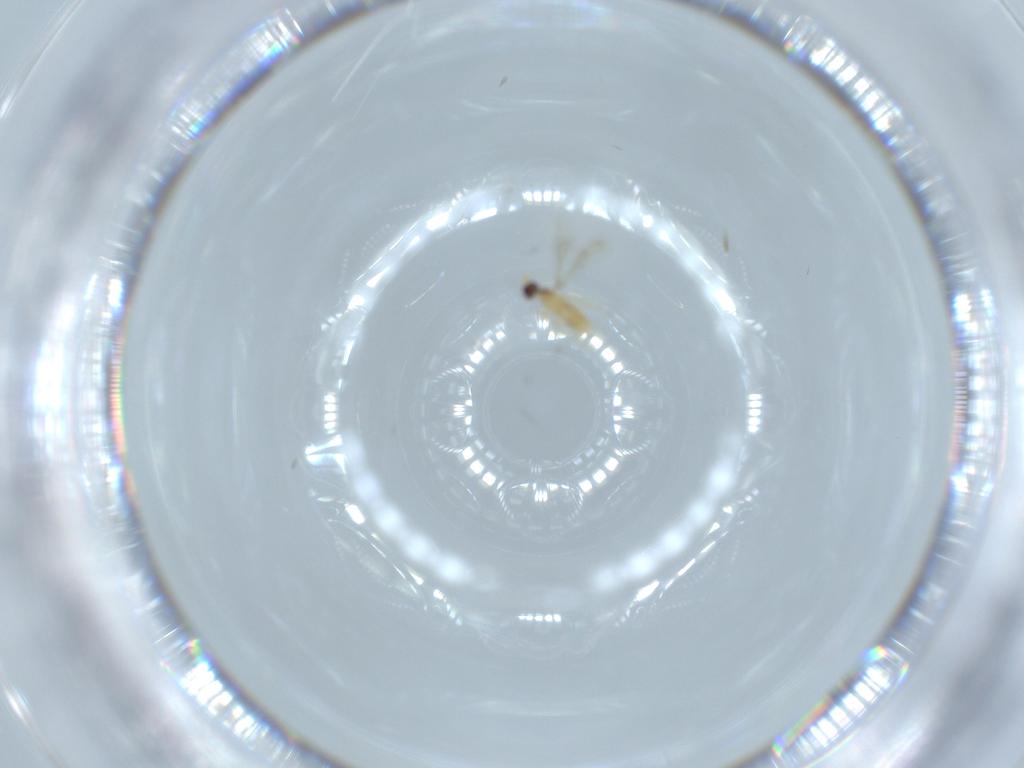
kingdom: Animalia
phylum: Arthropoda
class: Insecta
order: Hymenoptera
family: Mymaridae
